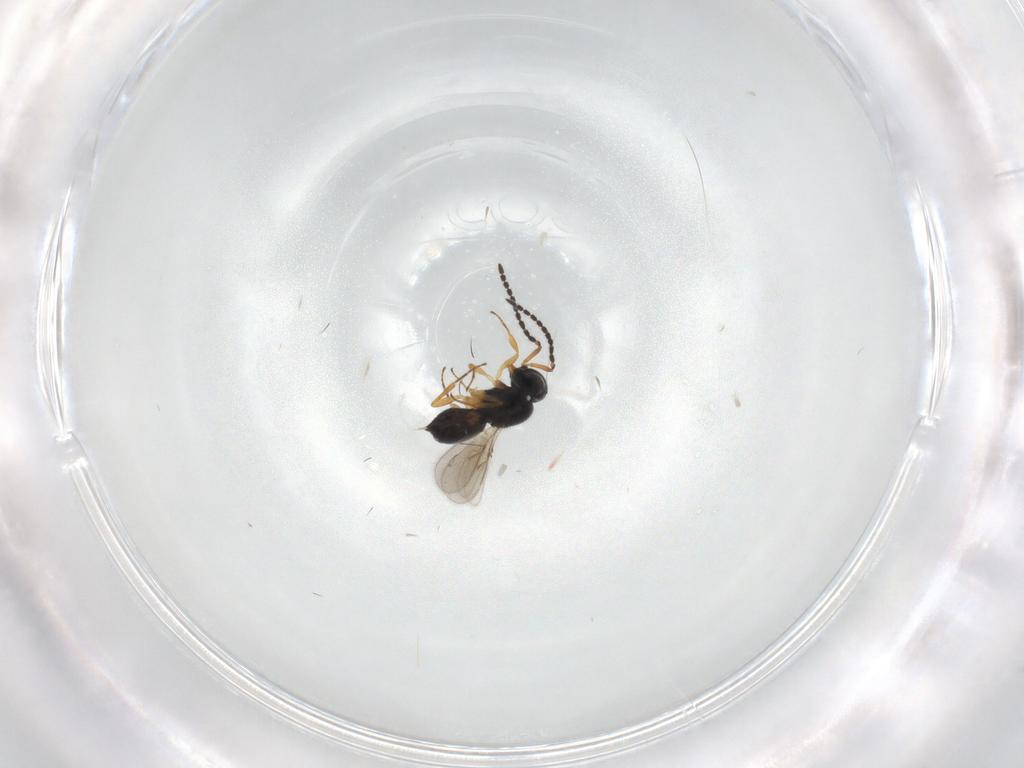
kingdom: Animalia
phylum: Arthropoda
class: Insecta
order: Hymenoptera
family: Scelionidae
